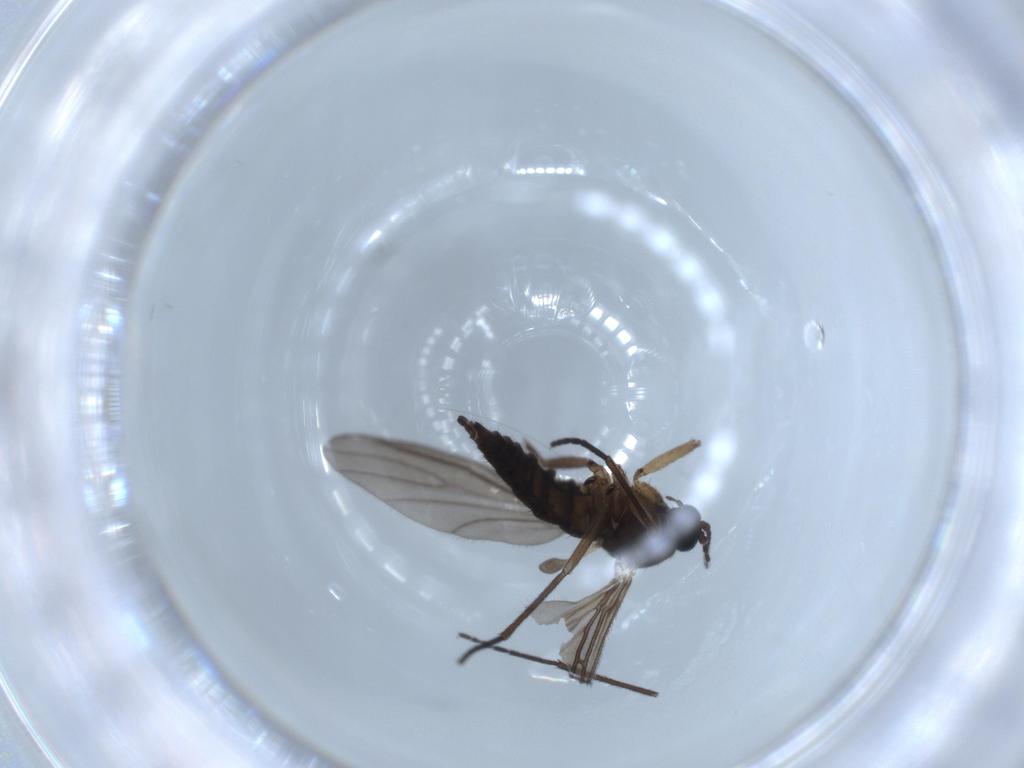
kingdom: Animalia
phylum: Arthropoda
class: Insecta
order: Diptera
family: Sciaridae
